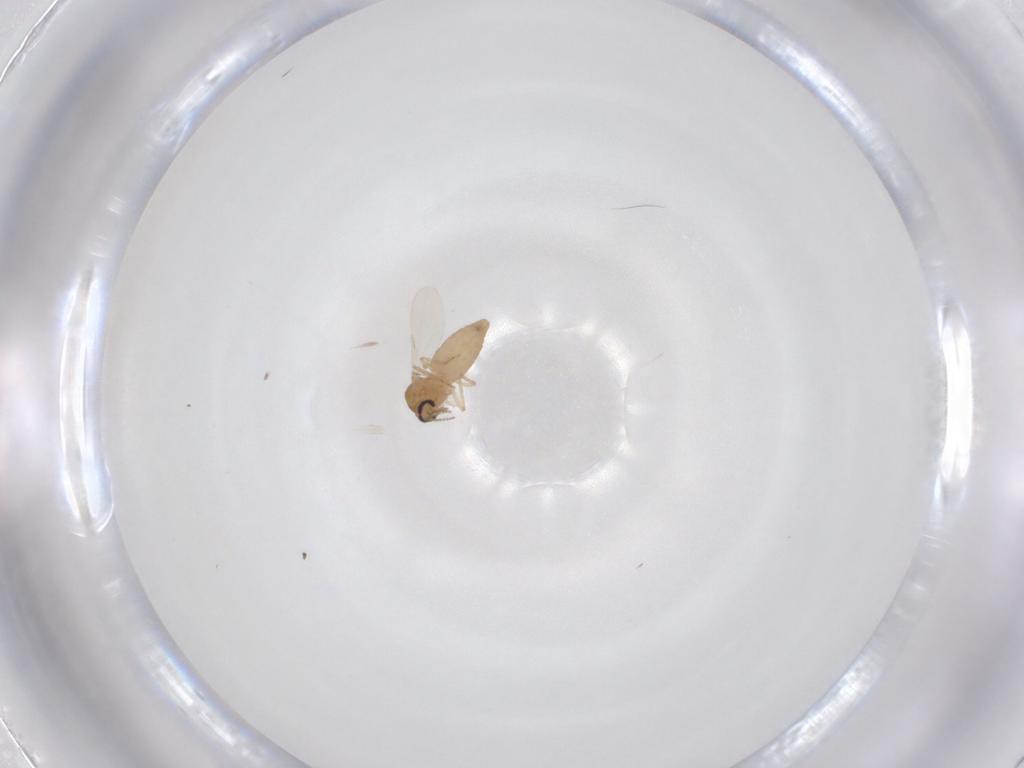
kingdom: Animalia
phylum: Arthropoda
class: Insecta
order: Diptera
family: Ceratopogonidae
